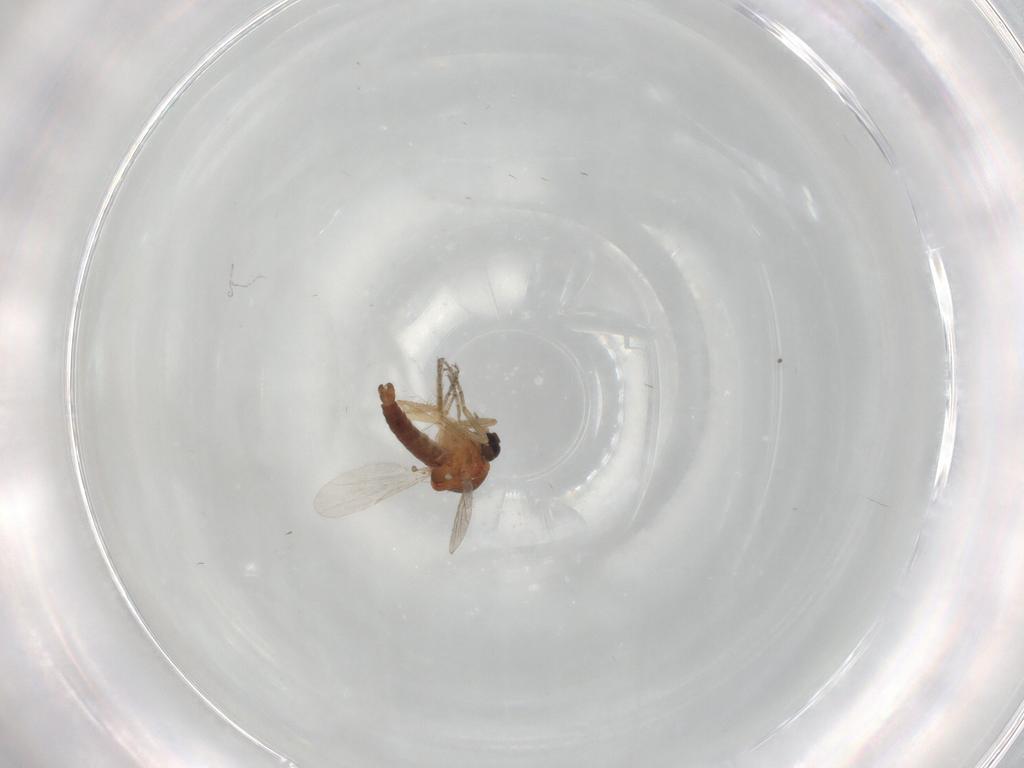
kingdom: Animalia
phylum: Arthropoda
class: Insecta
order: Diptera
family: Ceratopogonidae
